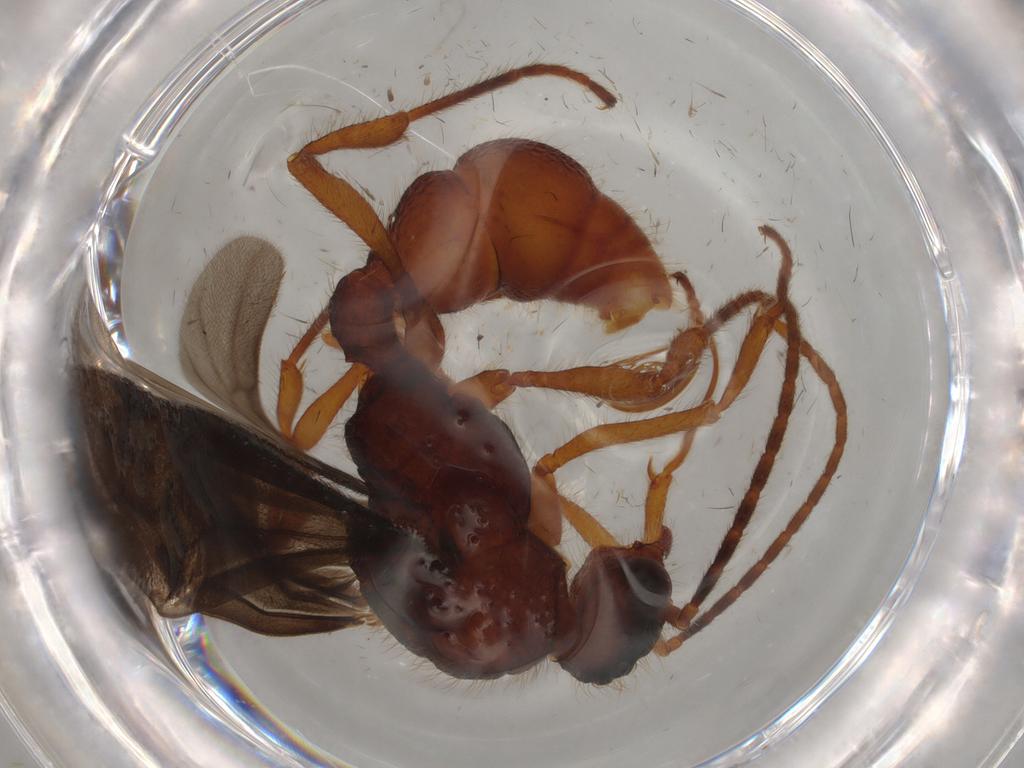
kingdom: Animalia
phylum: Arthropoda
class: Insecta
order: Hymenoptera
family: Formicidae
